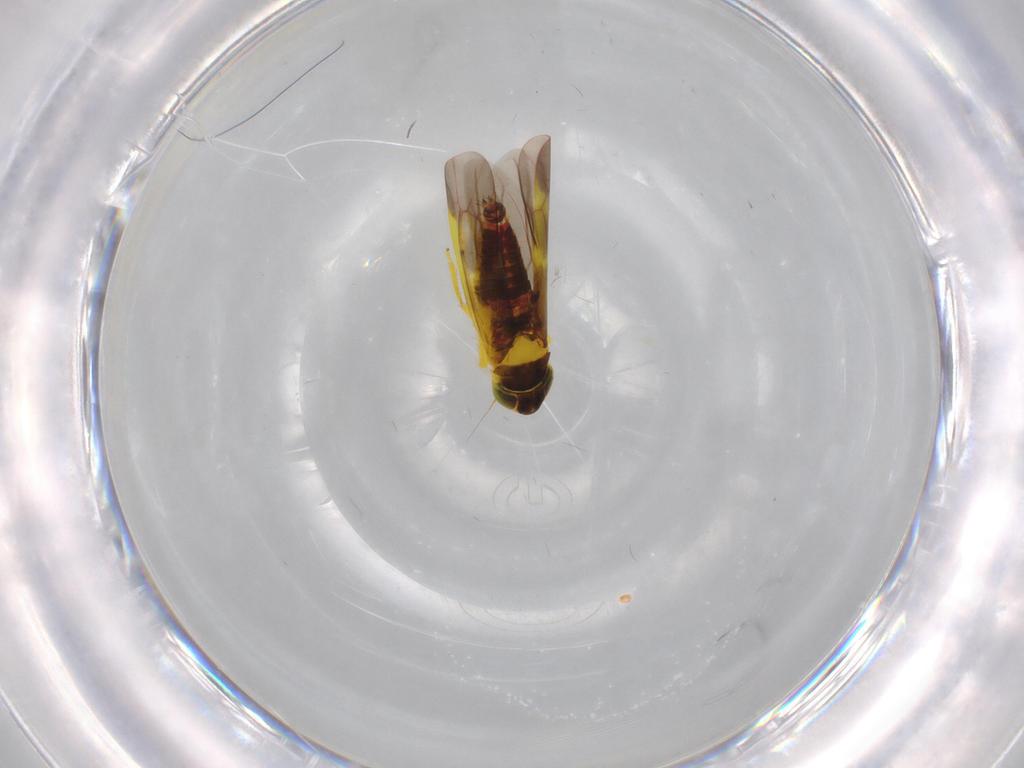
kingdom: Animalia
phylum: Arthropoda
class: Insecta
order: Hemiptera
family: Cicadellidae
